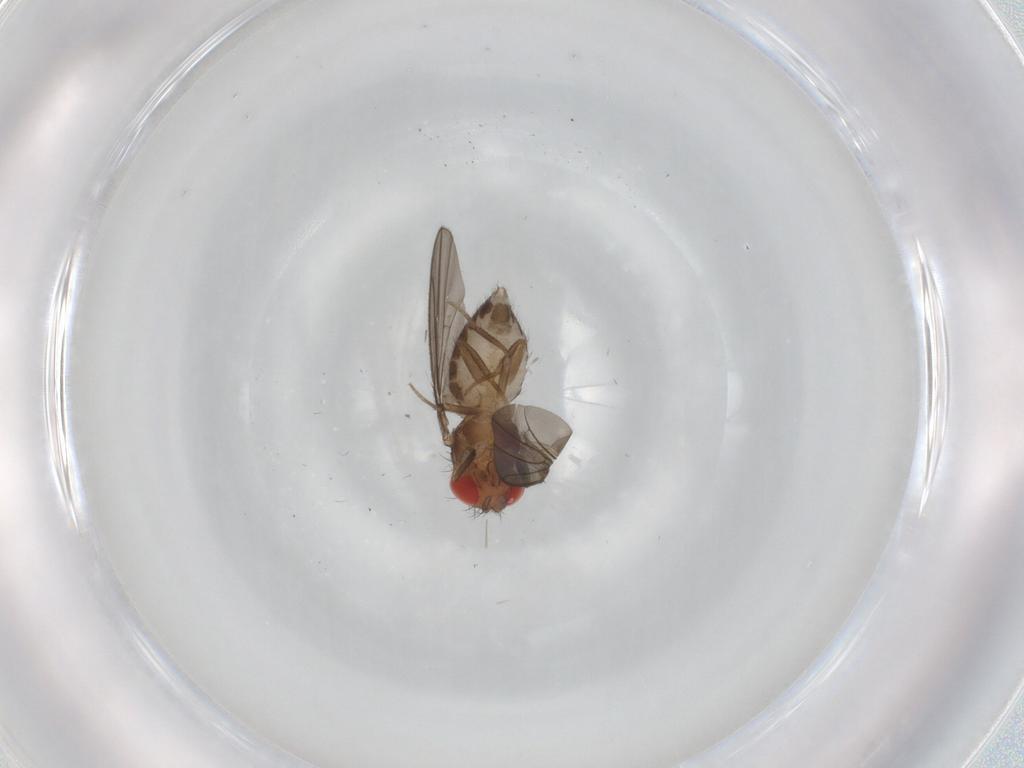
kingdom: Animalia
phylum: Arthropoda
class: Insecta
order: Diptera
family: Drosophilidae
